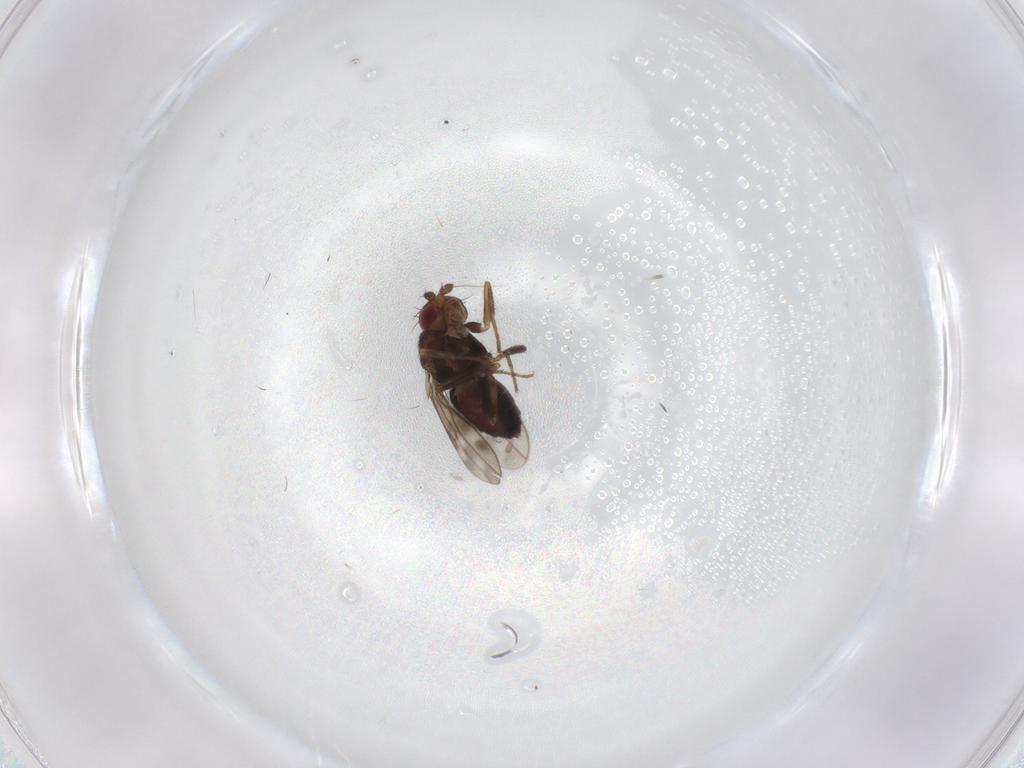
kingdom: Animalia
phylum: Arthropoda
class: Insecta
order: Diptera
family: Sphaeroceridae
